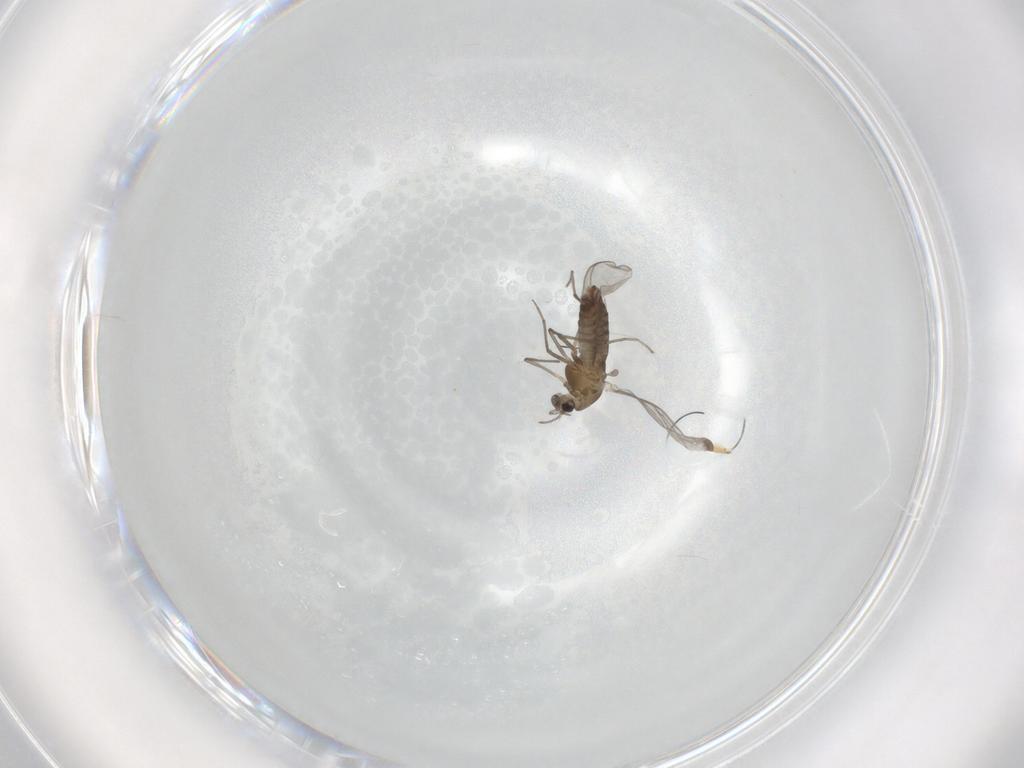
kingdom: Animalia
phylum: Arthropoda
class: Insecta
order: Diptera
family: Chironomidae
